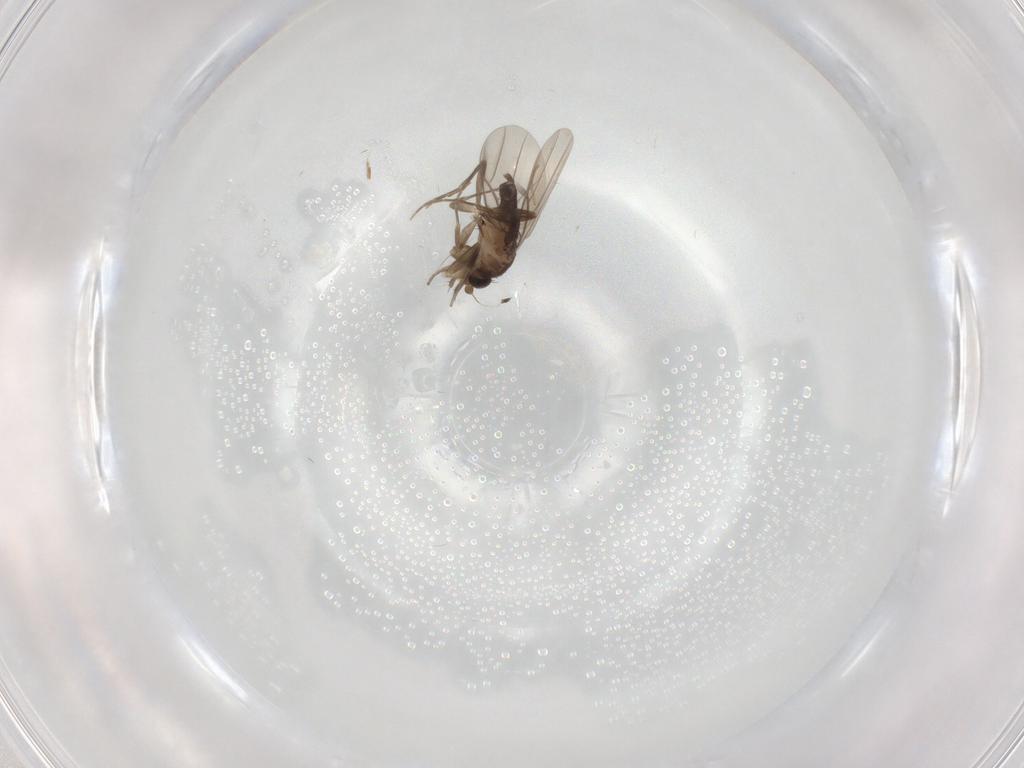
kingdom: Animalia
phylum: Arthropoda
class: Insecta
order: Diptera
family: Chironomidae
